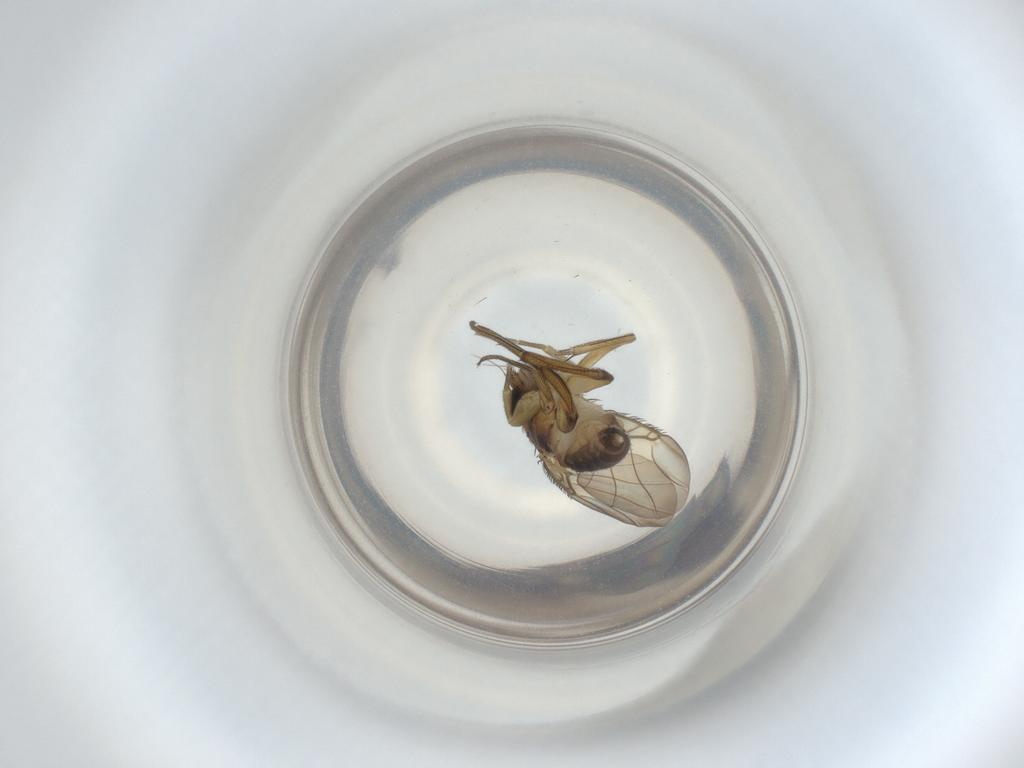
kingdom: Animalia
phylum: Arthropoda
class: Insecta
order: Diptera
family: Phoridae
